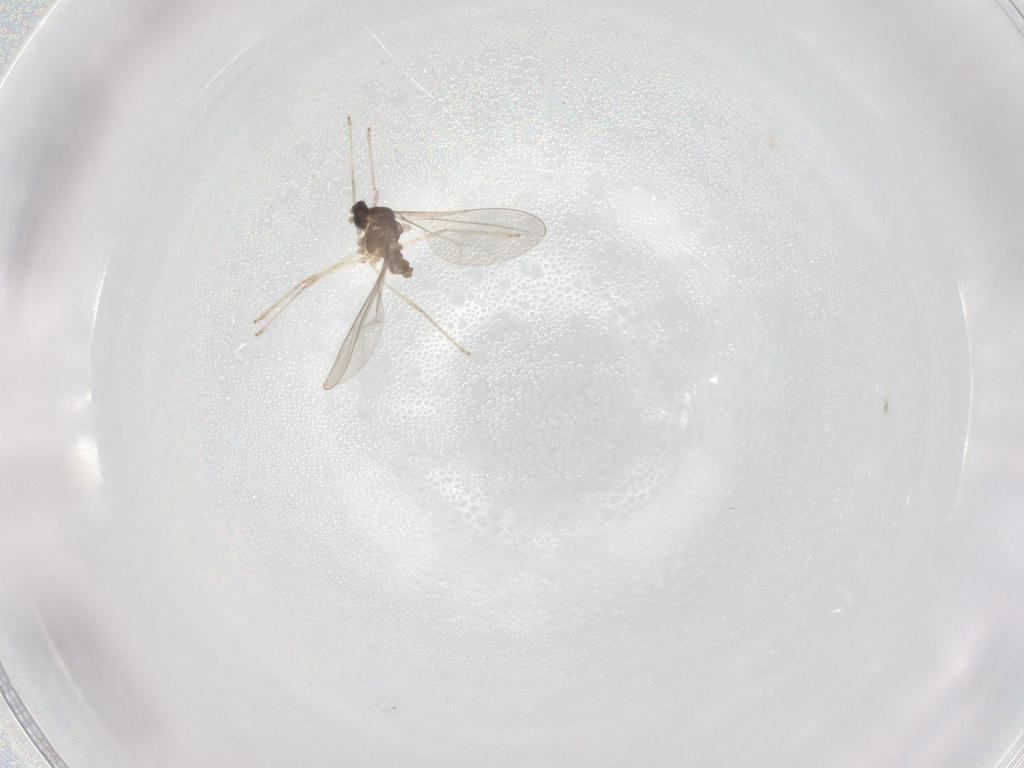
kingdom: Animalia
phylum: Arthropoda
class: Insecta
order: Diptera
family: Cecidomyiidae
